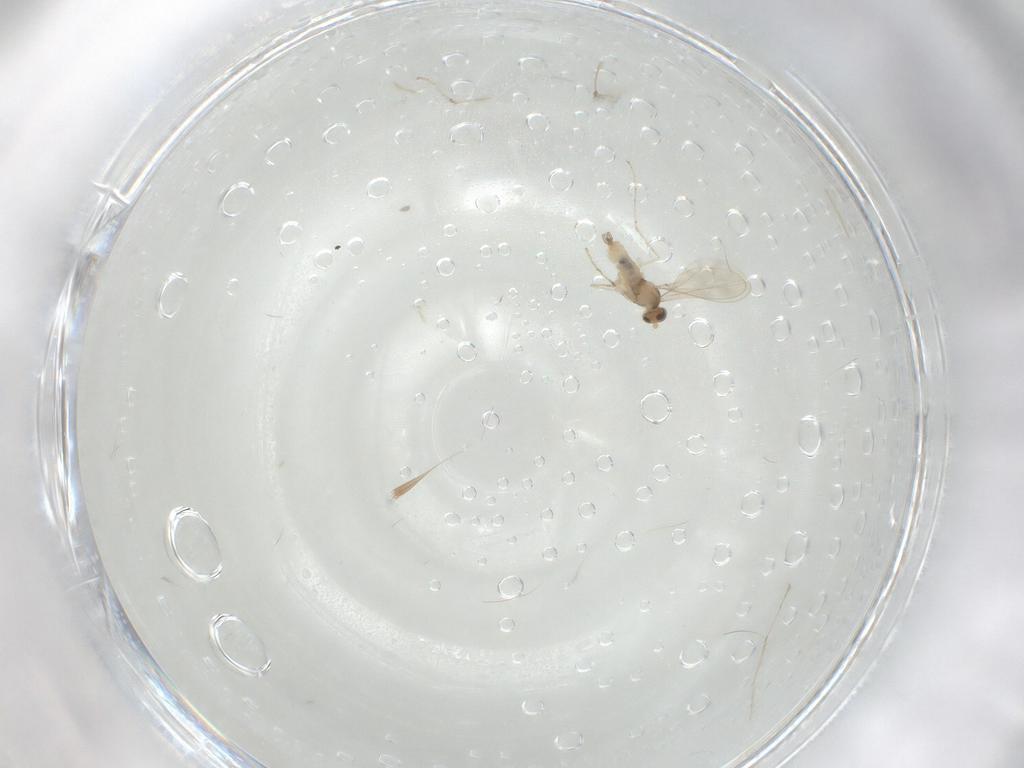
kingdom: Animalia
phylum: Arthropoda
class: Insecta
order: Diptera
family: Cecidomyiidae
